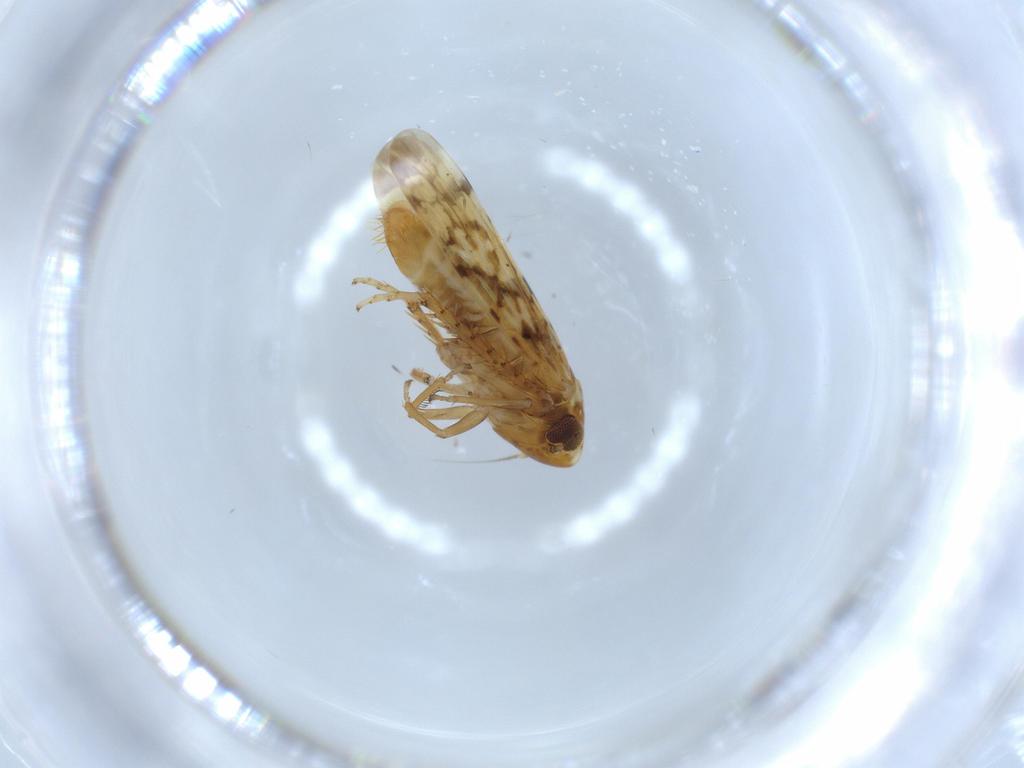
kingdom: Animalia
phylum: Arthropoda
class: Insecta
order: Hemiptera
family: Cicadellidae
